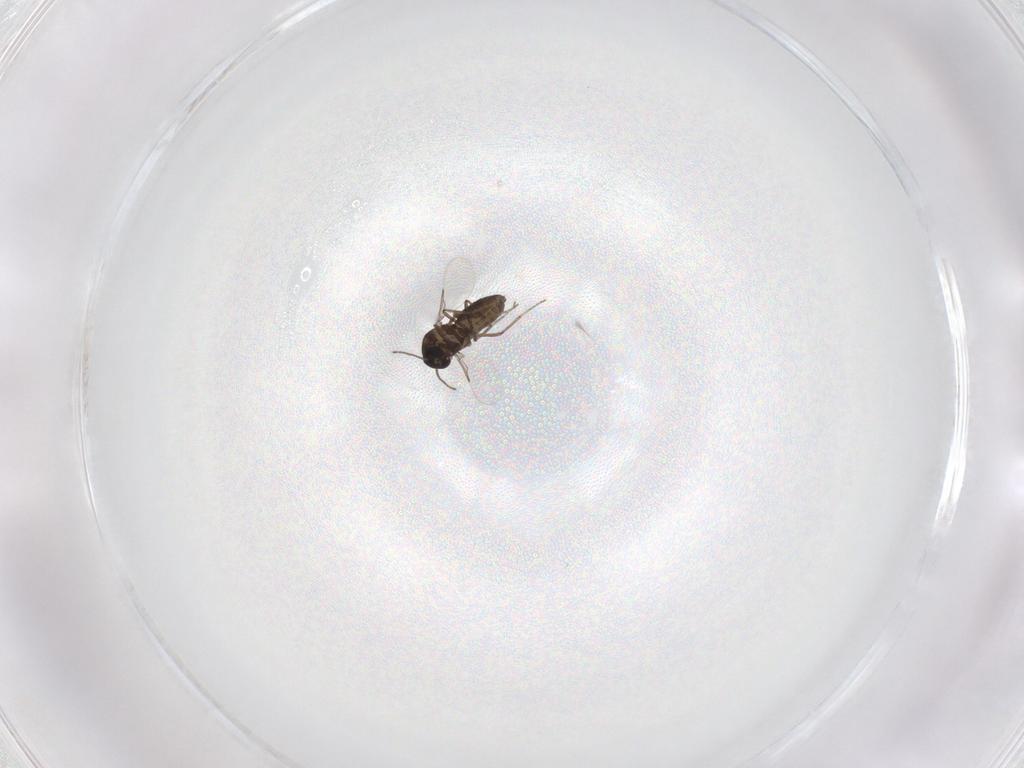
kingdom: Animalia
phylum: Arthropoda
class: Insecta
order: Diptera
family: Ceratopogonidae
